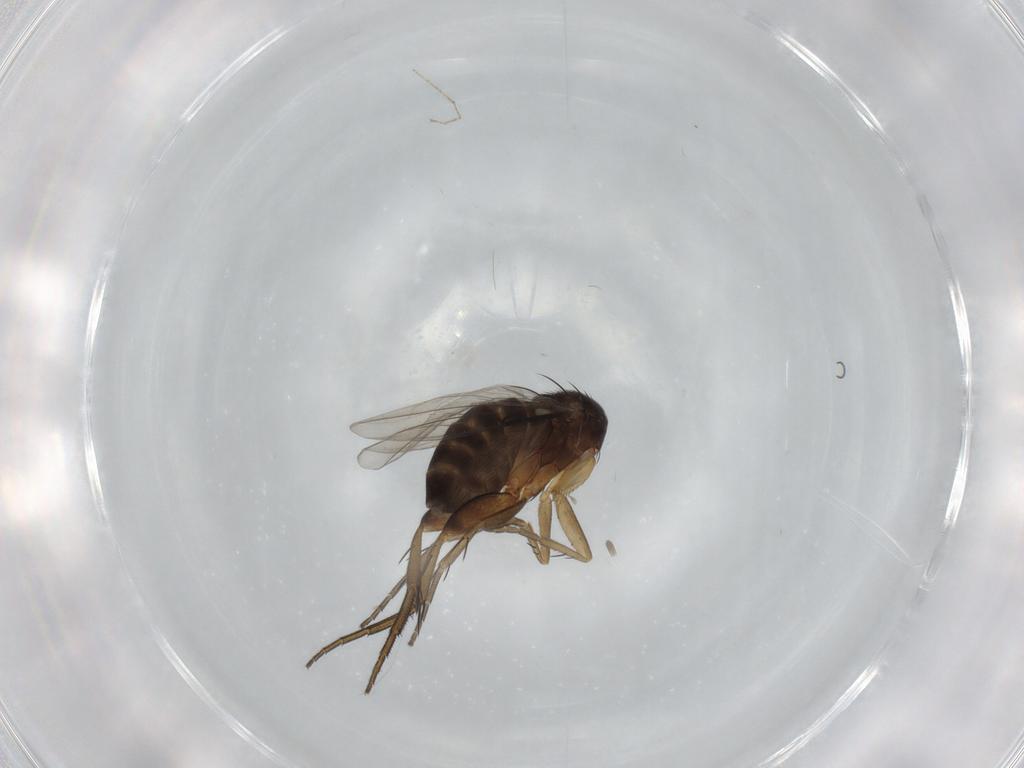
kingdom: Animalia
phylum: Arthropoda
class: Insecta
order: Diptera
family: Phoridae
